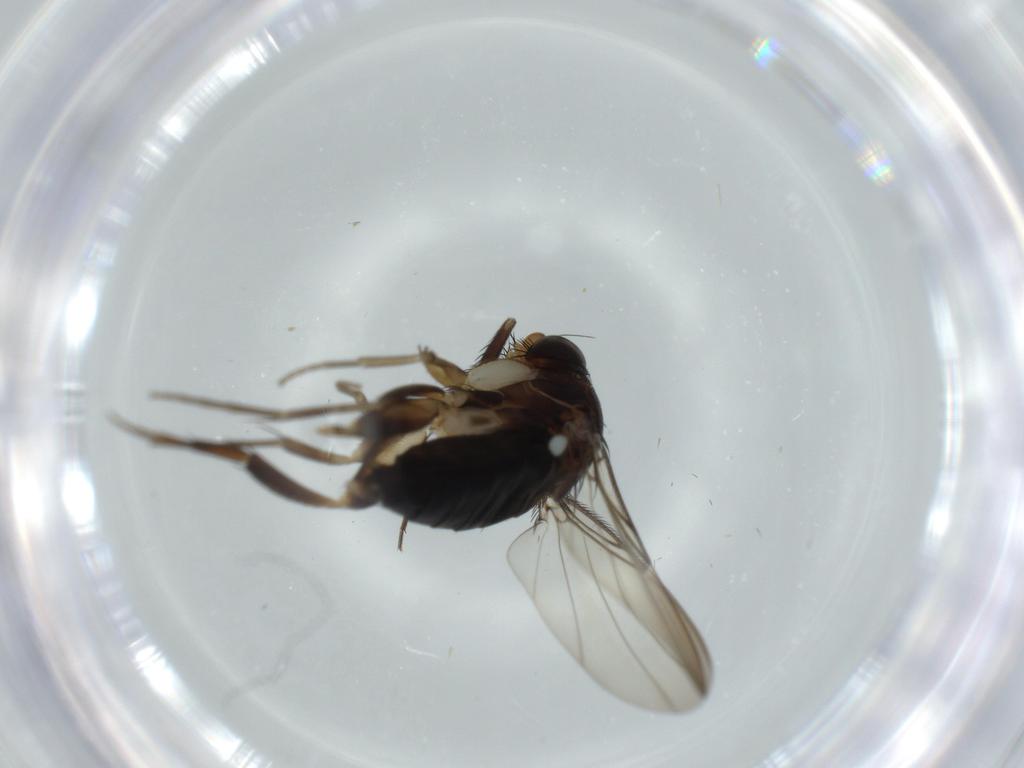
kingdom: Animalia
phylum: Arthropoda
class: Insecta
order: Diptera
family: Phoridae
